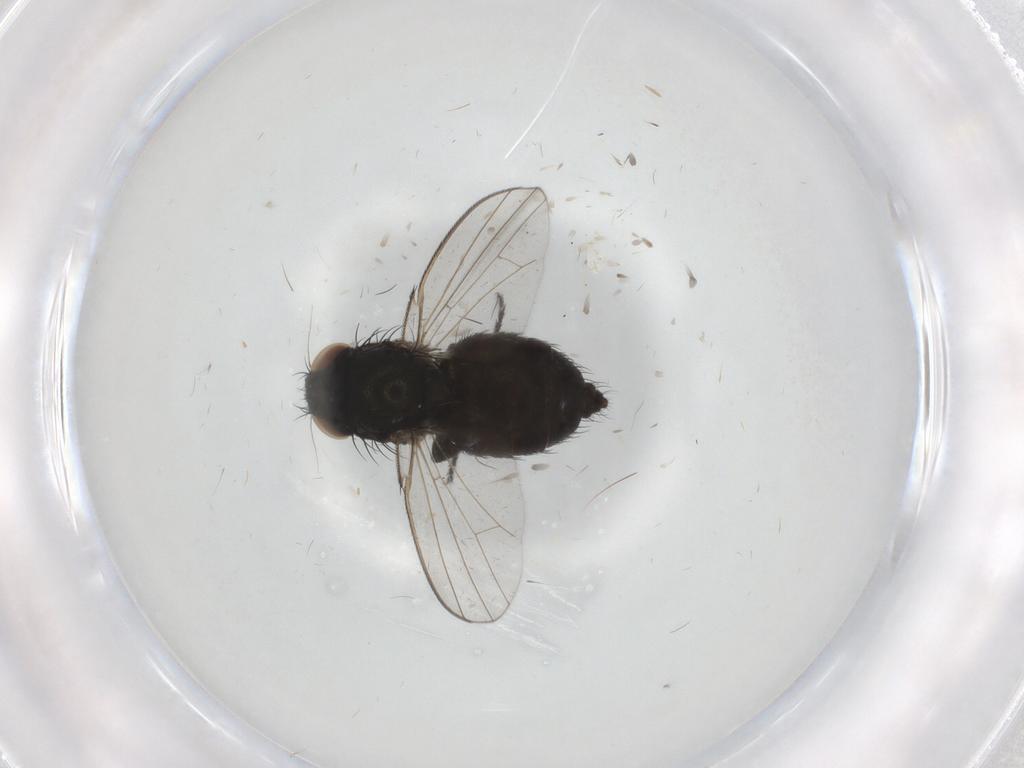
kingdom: Animalia
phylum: Arthropoda
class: Insecta
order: Diptera
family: Milichiidae
